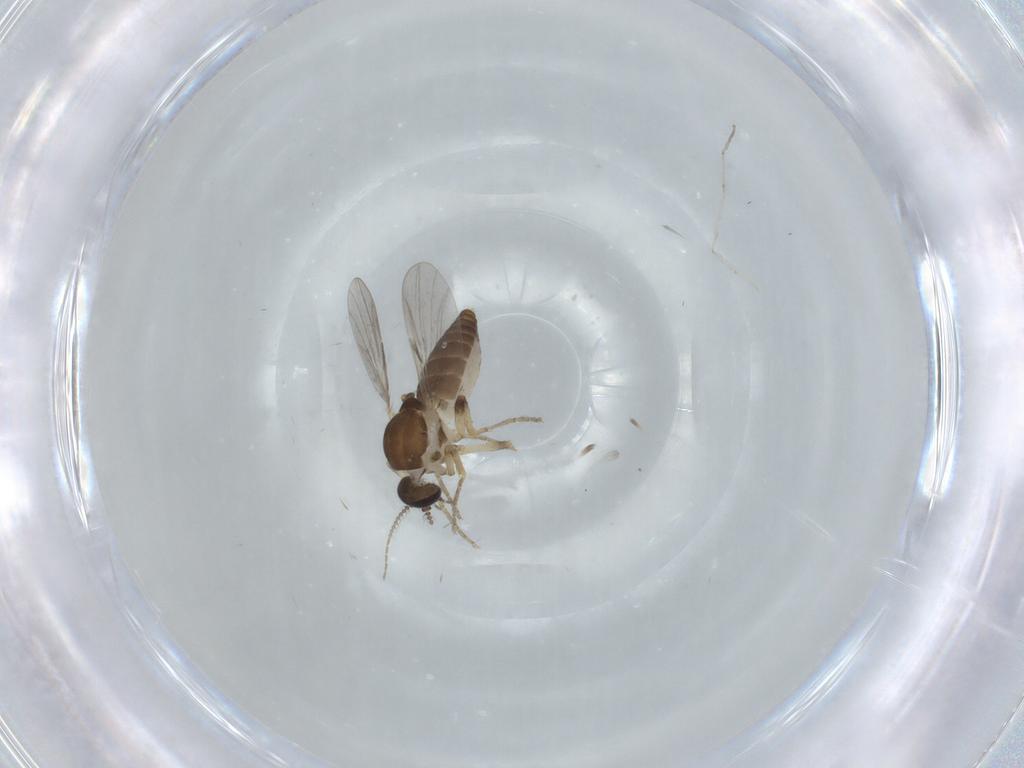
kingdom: Animalia
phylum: Arthropoda
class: Insecta
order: Diptera
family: Ceratopogonidae
